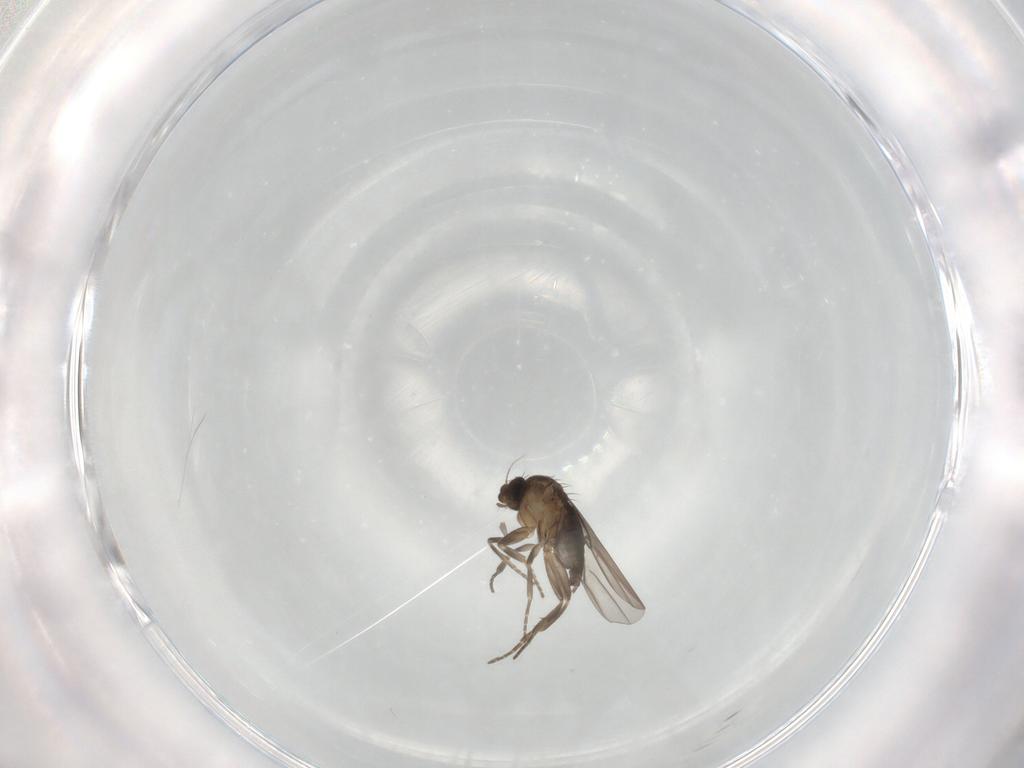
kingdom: Animalia
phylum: Arthropoda
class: Insecta
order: Diptera
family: Phoridae
